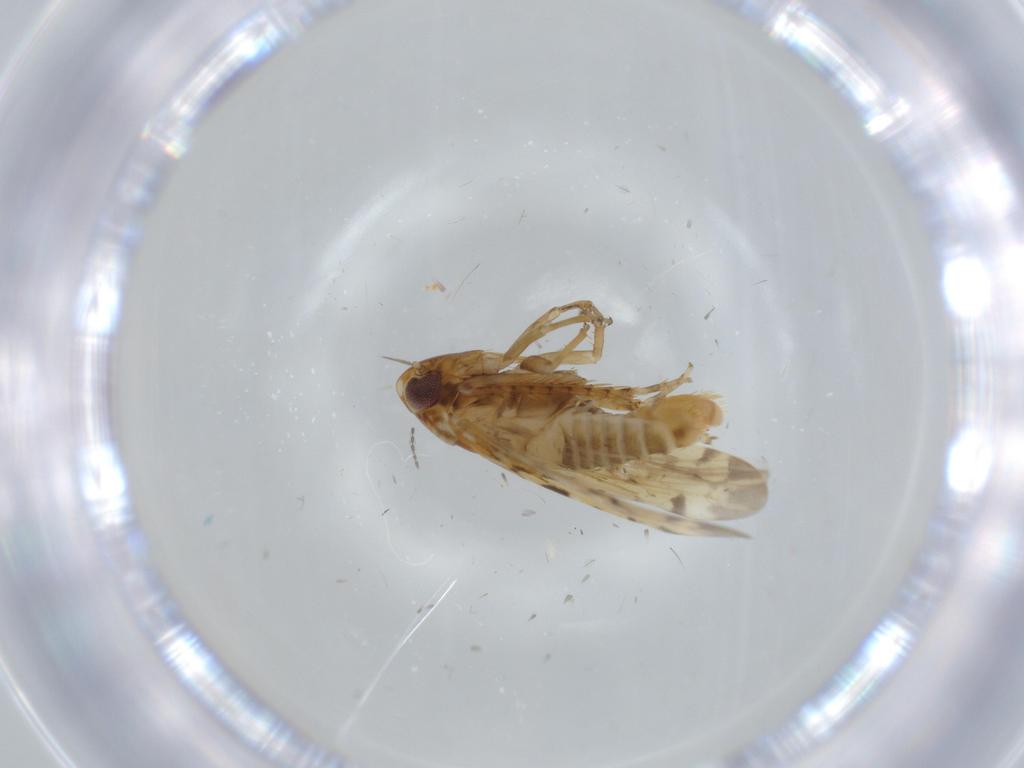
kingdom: Animalia
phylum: Arthropoda
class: Insecta
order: Hemiptera
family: Cicadellidae
